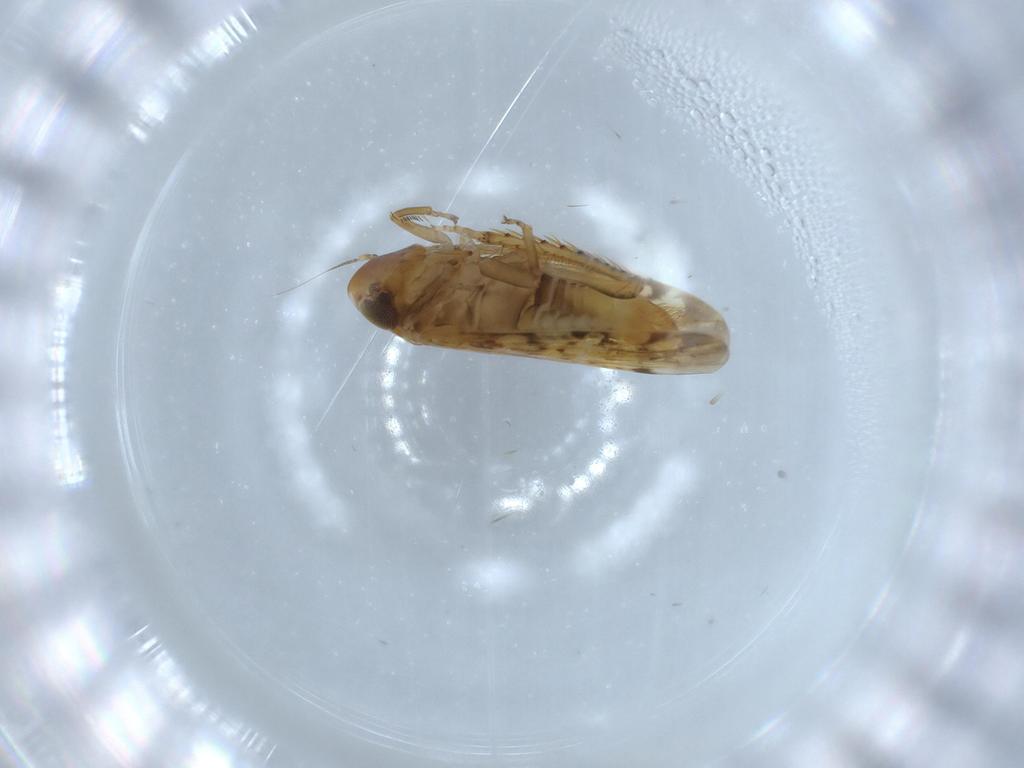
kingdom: Animalia
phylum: Arthropoda
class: Insecta
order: Hemiptera
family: Cicadellidae
